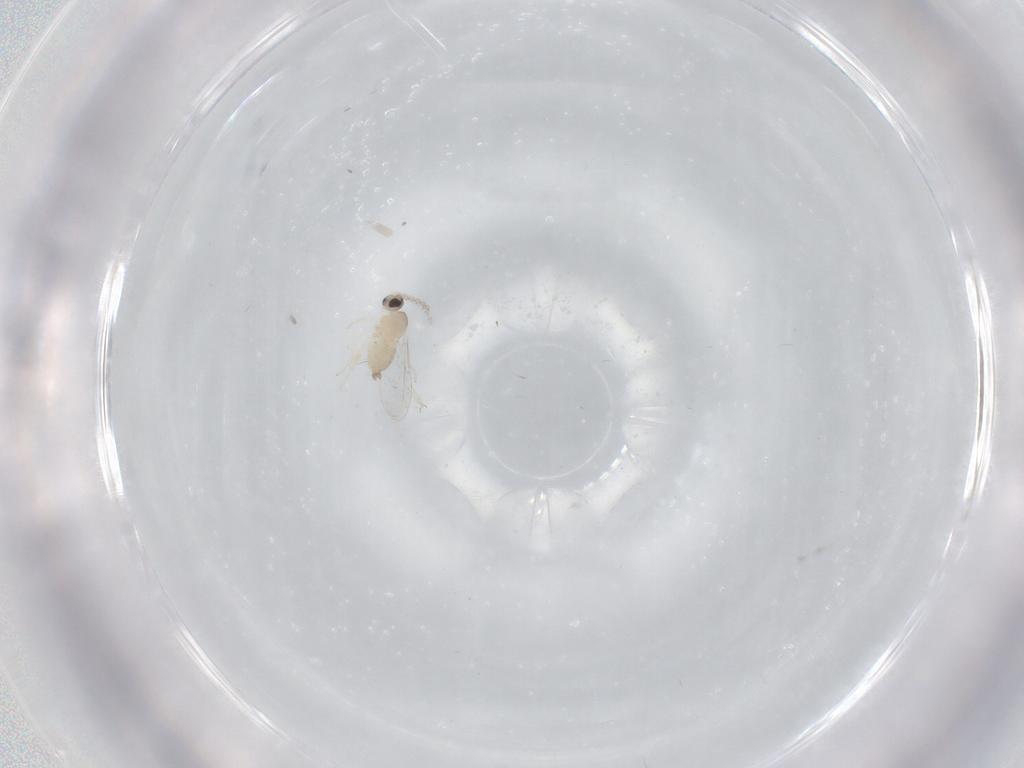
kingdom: Animalia
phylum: Arthropoda
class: Insecta
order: Diptera
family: Cecidomyiidae
